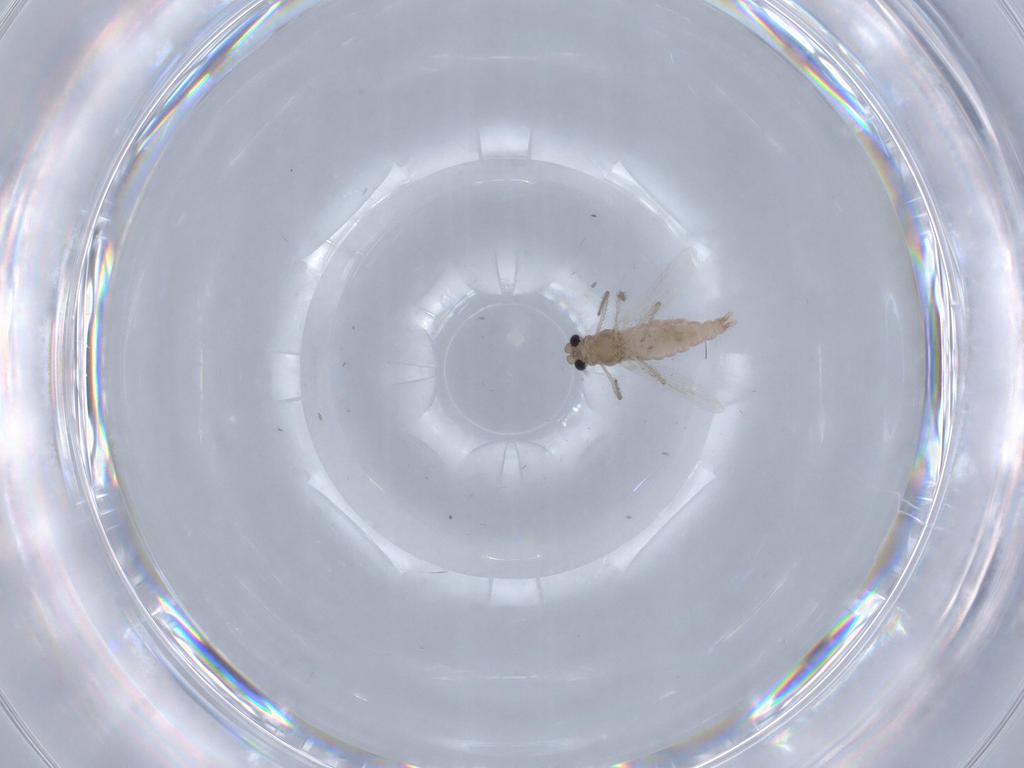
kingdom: Animalia
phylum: Arthropoda
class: Insecta
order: Diptera
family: Chironomidae
